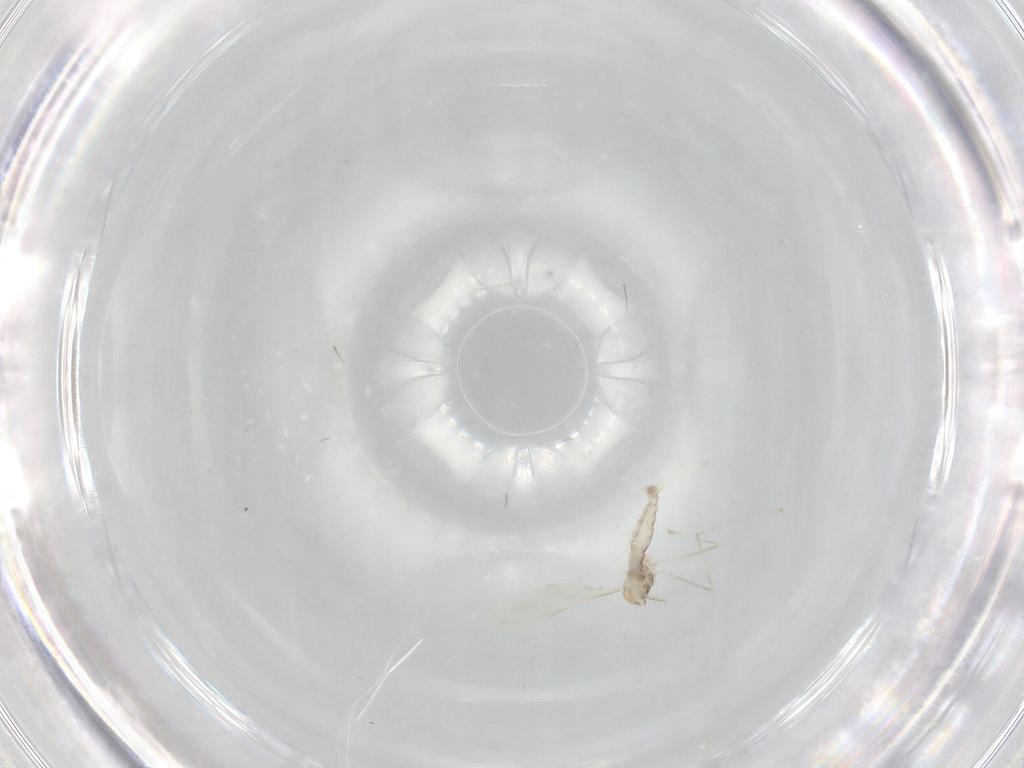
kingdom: Animalia
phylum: Arthropoda
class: Insecta
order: Diptera
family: Cecidomyiidae
